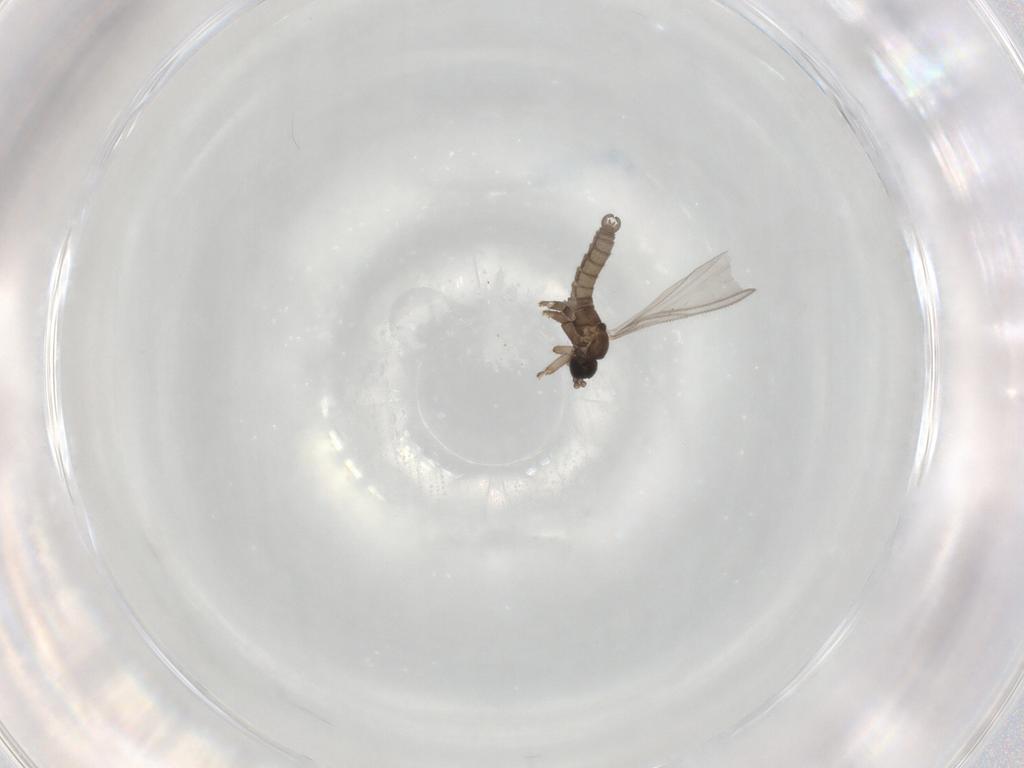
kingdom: Animalia
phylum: Arthropoda
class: Insecta
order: Diptera
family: Sciaridae
